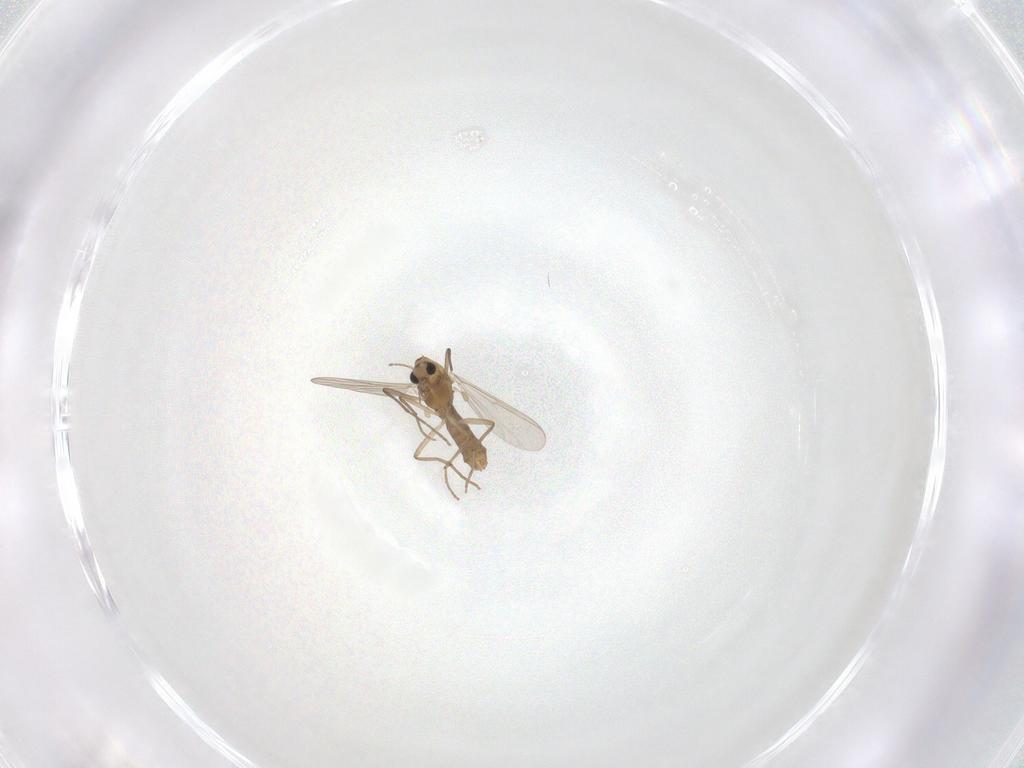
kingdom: Animalia
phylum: Arthropoda
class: Insecta
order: Diptera
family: Chironomidae
